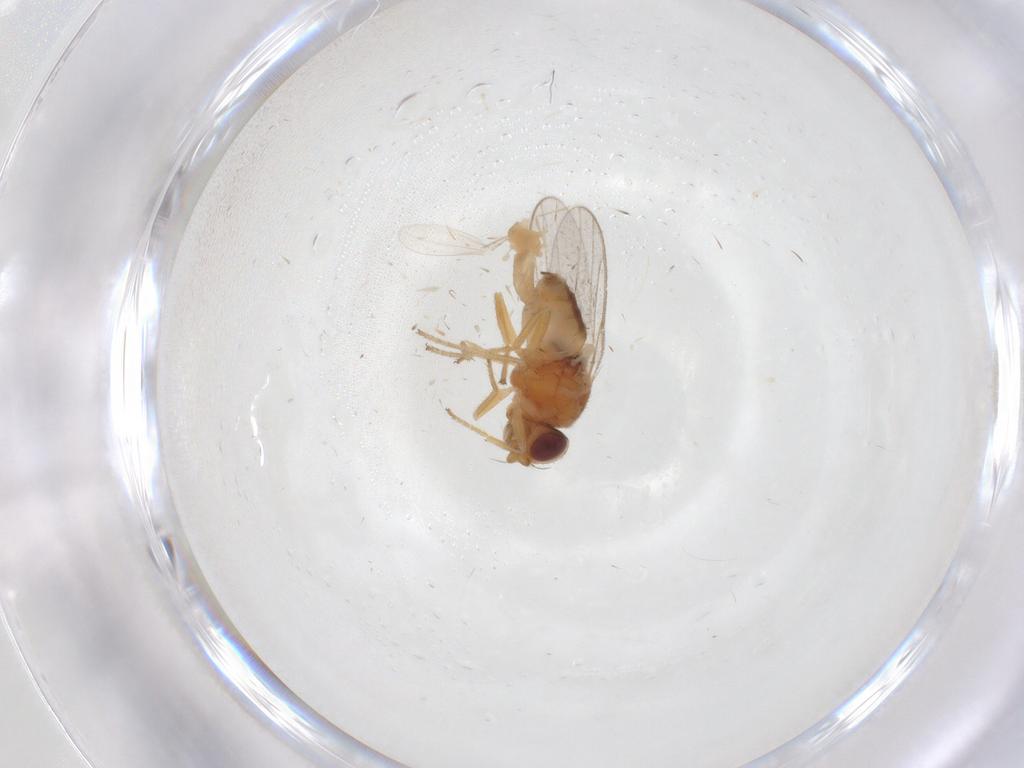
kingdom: Animalia
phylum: Arthropoda
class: Insecta
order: Diptera
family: Cecidomyiidae
